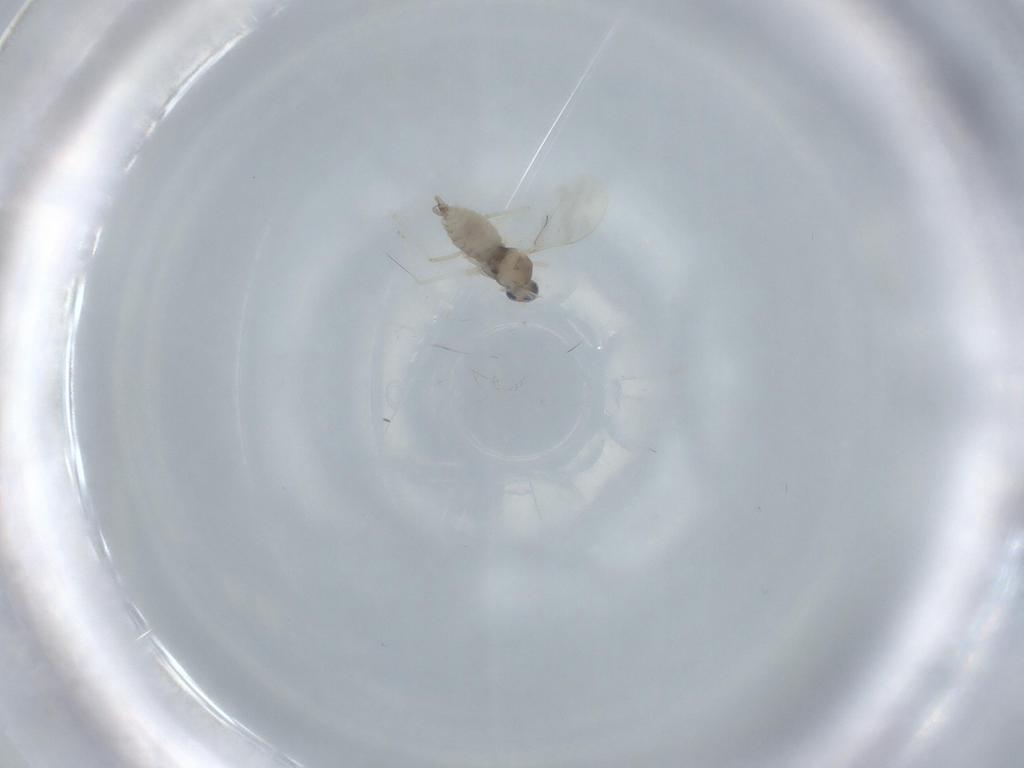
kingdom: Animalia
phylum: Arthropoda
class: Insecta
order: Diptera
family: Cecidomyiidae
